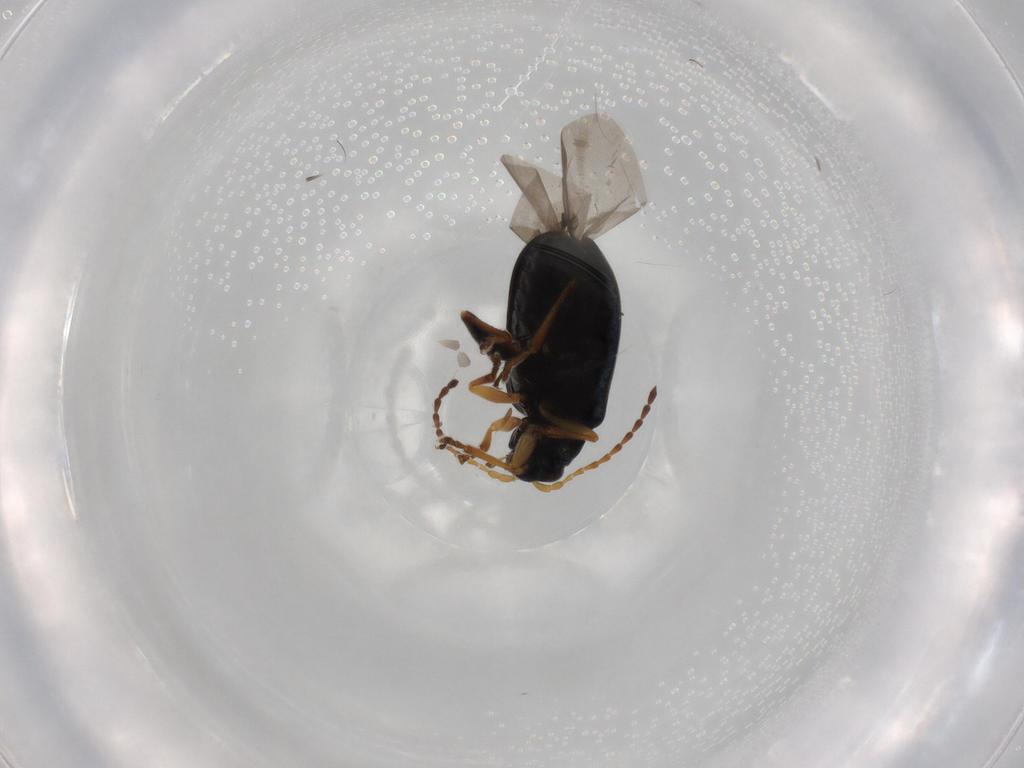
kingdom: Animalia
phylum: Arthropoda
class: Insecta
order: Coleoptera
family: Chrysomelidae
